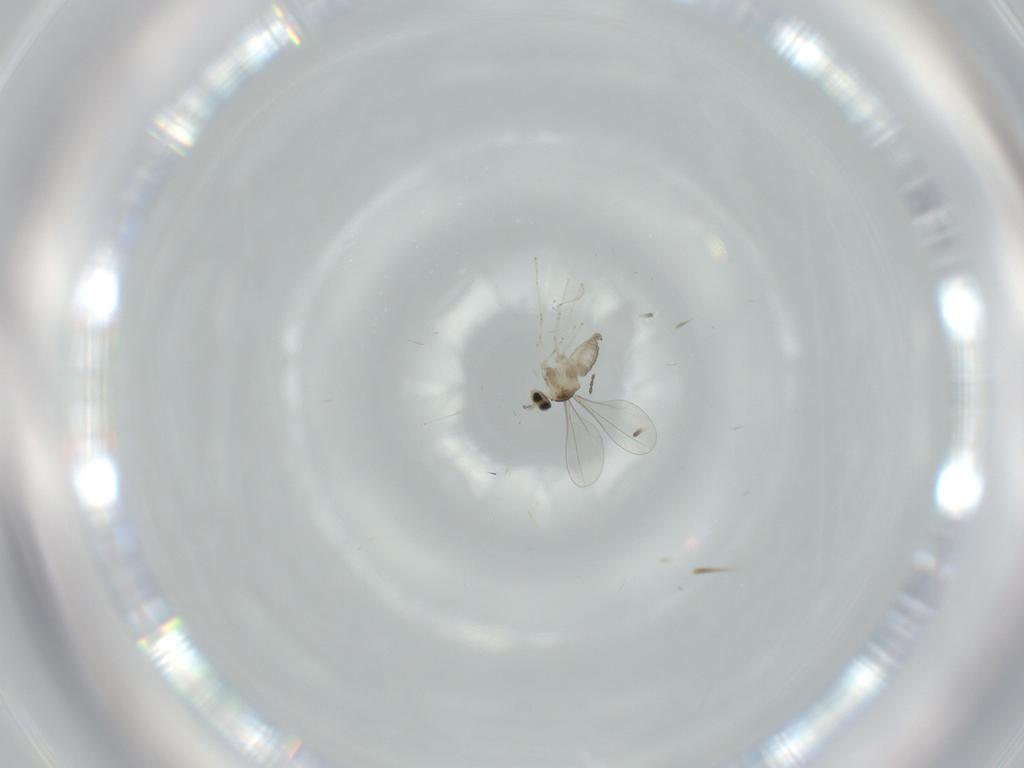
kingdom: Animalia
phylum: Arthropoda
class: Insecta
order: Diptera
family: Cecidomyiidae
